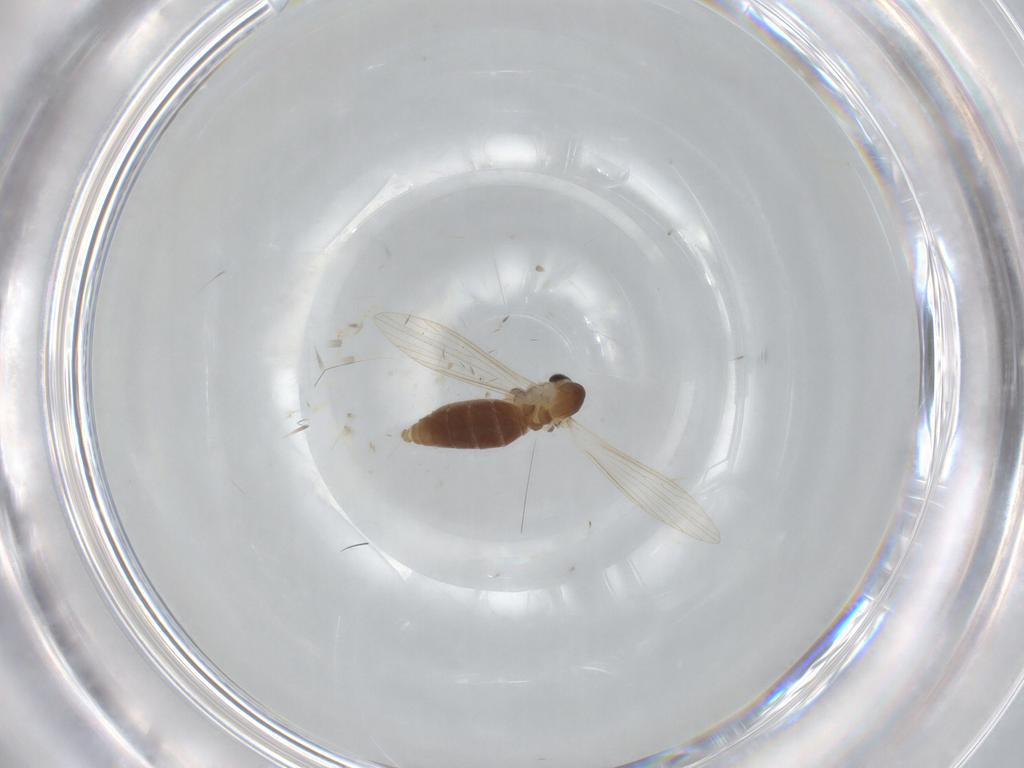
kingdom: Animalia
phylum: Arthropoda
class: Insecta
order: Diptera
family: Psychodidae
